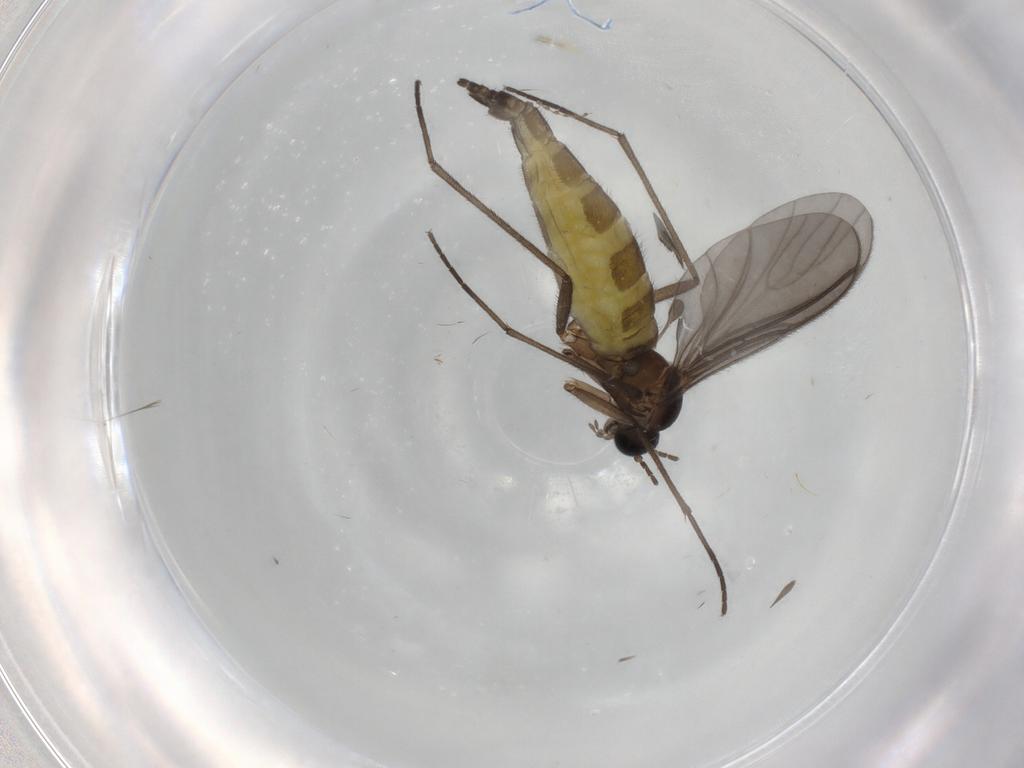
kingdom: Animalia
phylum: Arthropoda
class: Insecta
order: Diptera
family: Sciaridae
